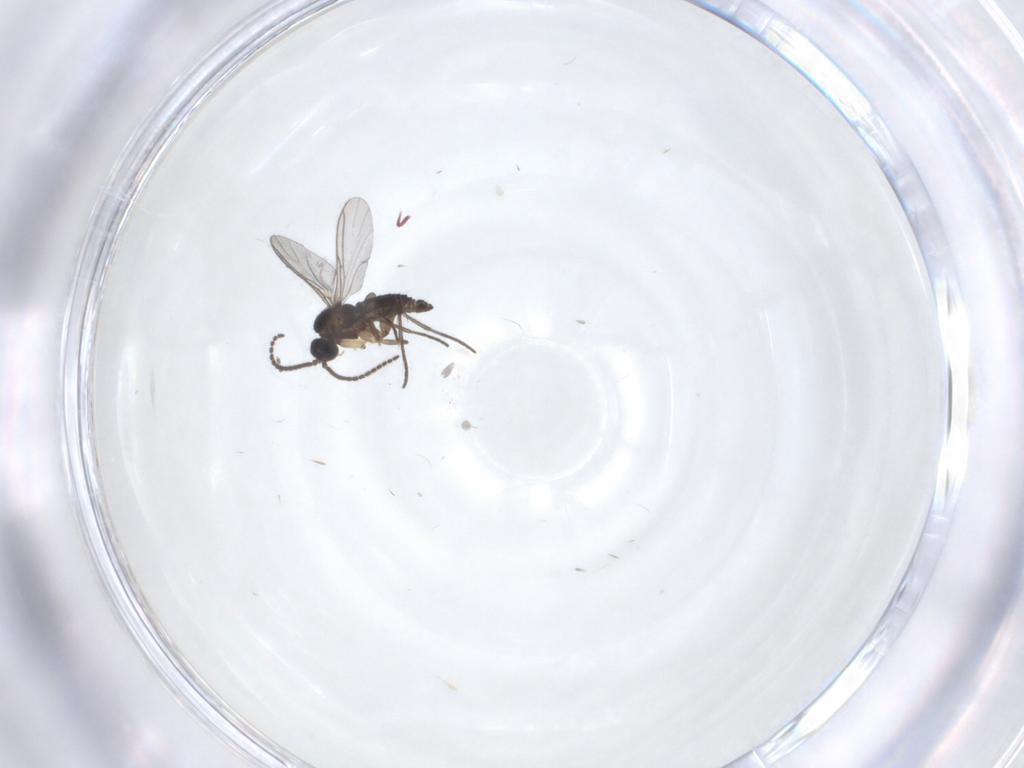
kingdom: Animalia
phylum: Arthropoda
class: Insecta
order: Diptera
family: Sciaridae
